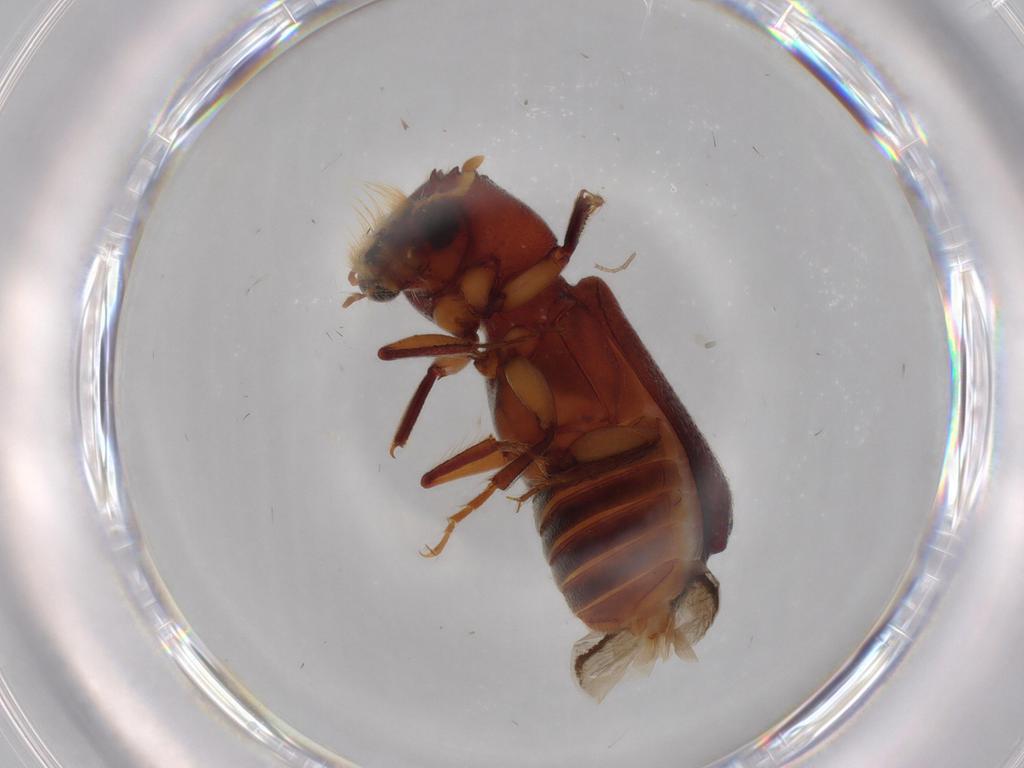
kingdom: Animalia
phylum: Arthropoda
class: Insecta
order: Coleoptera
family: Bostrichidae
